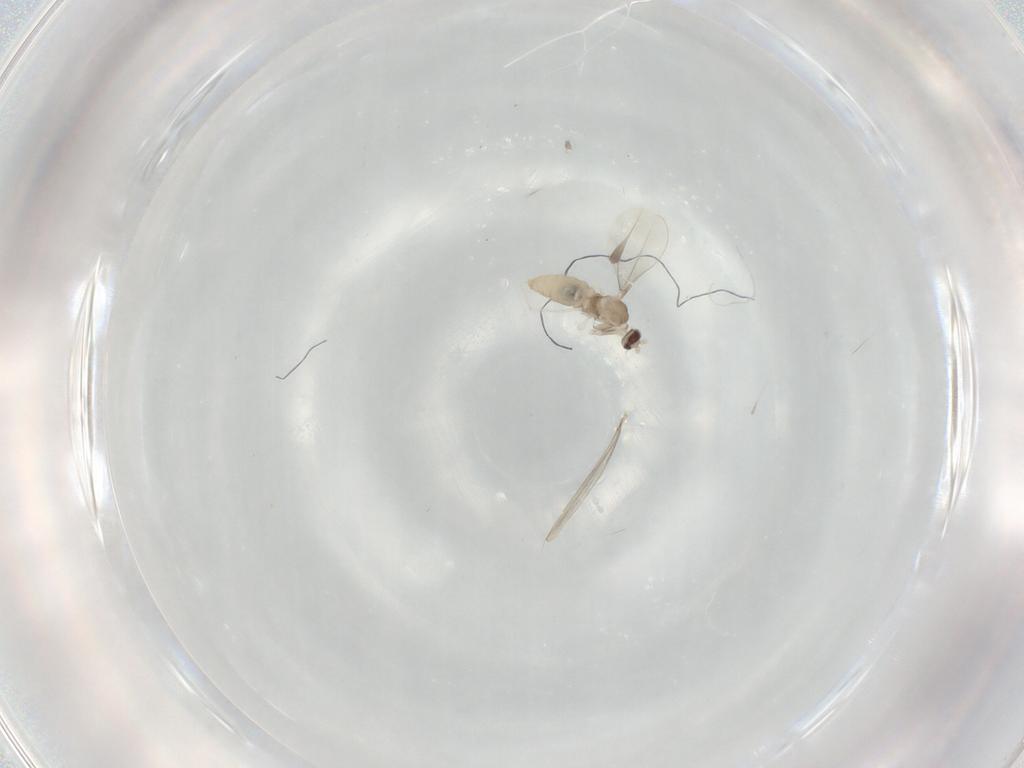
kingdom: Animalia
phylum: Arthropoda
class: Insecta
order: Diptera
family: Cecidomyiidae
